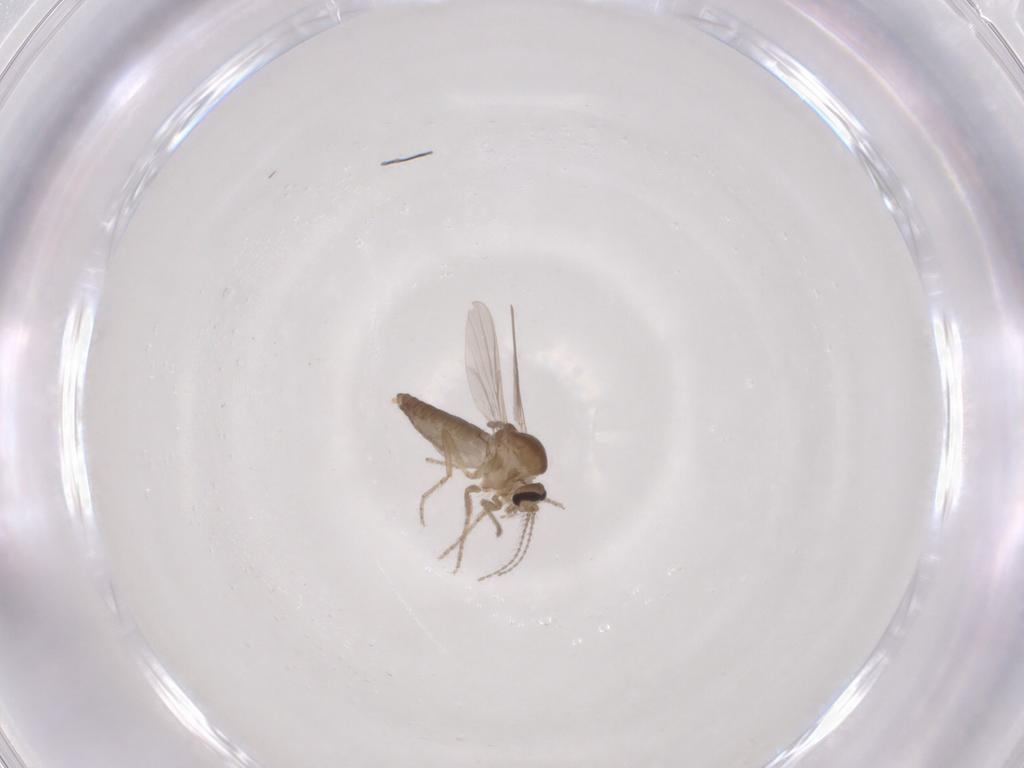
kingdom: Animalia
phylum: Arthropoda
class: Insecta
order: Diptera
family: Ceratopogonidae
